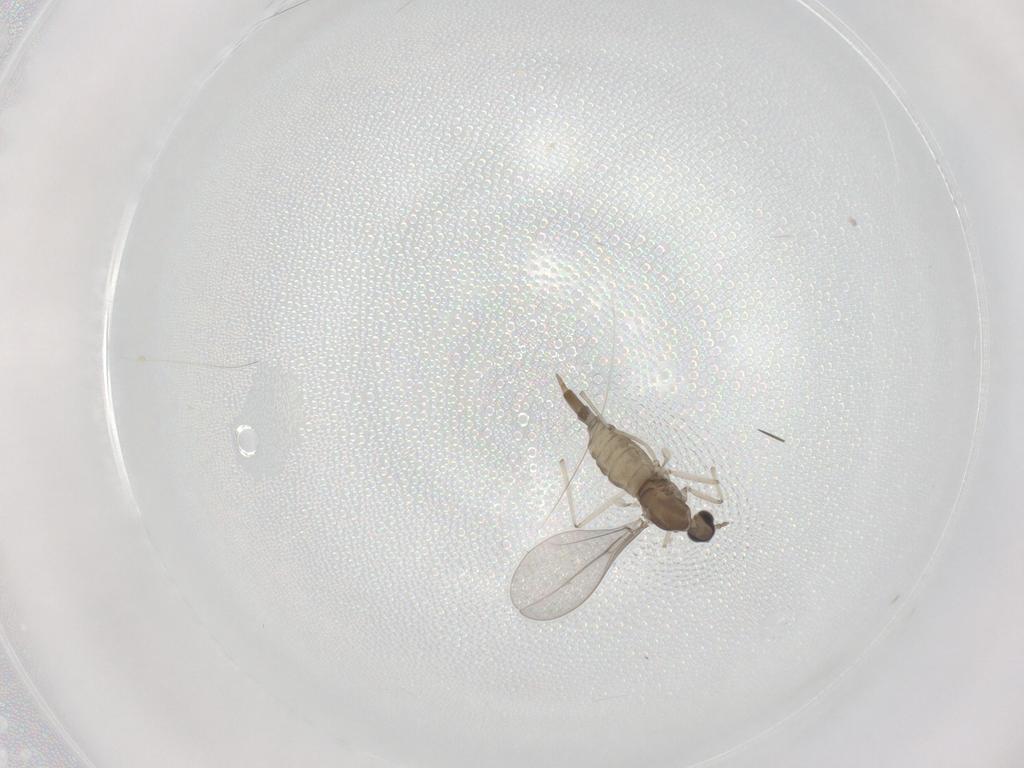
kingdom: Animalia
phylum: Arthropoda
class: Insecta
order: Diptera
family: Cecidomyiidae
